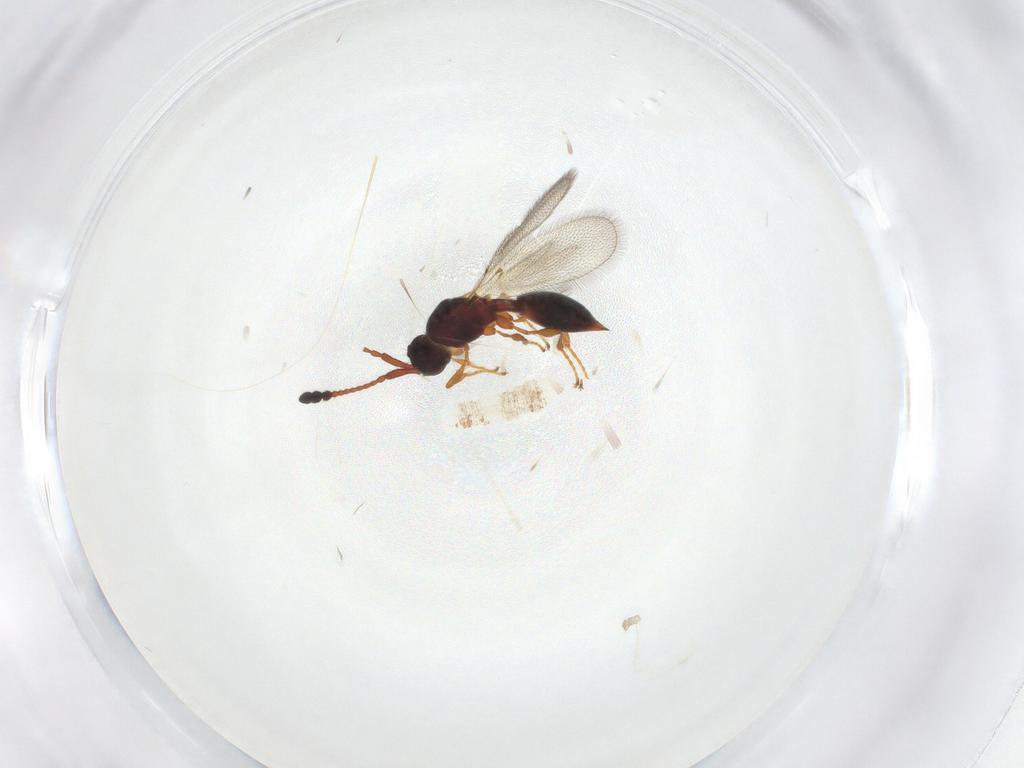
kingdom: Animalia
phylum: Arthropoda
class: Insecta
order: Hymenoptera
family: Diapriidae
